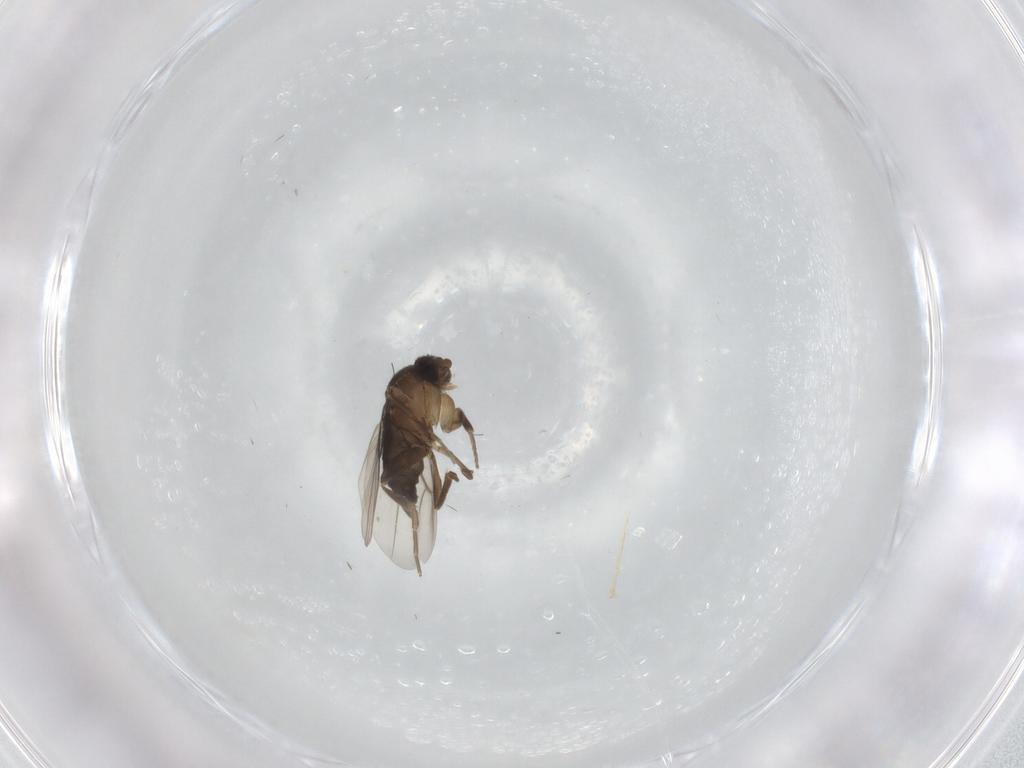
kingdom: Animalia
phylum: Arthropoda
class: Insecta
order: Diptera
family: Phoridae
